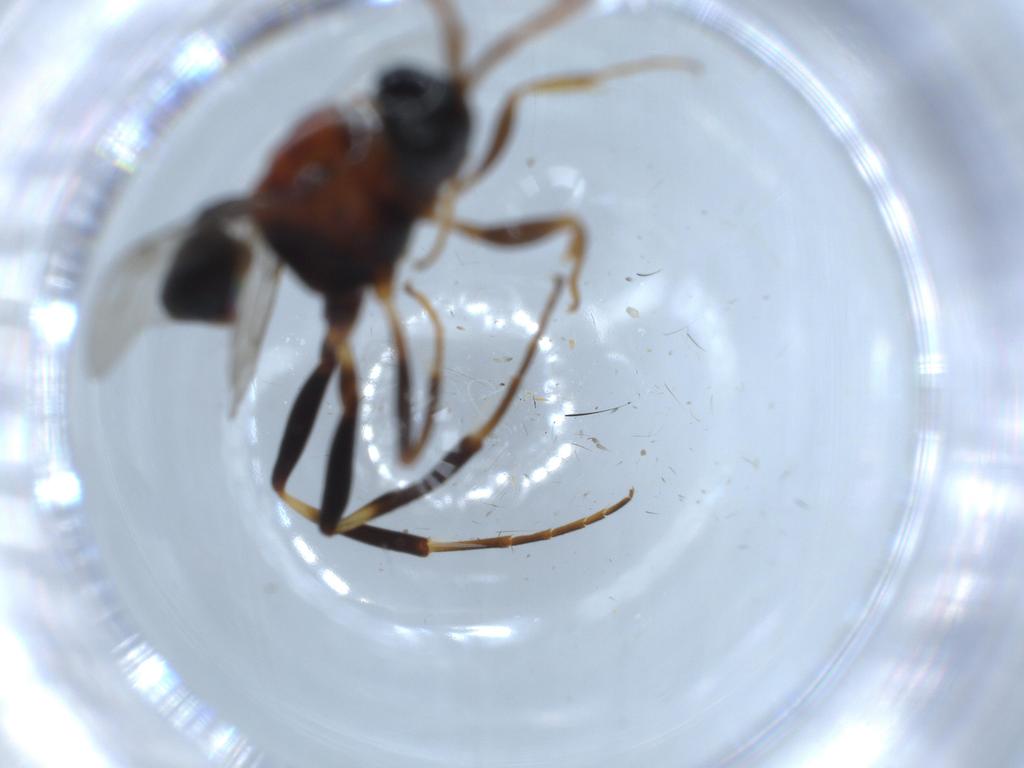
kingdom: Animalia
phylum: Arthropoda
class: Insecta
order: Hymenoptera
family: Evaniidae
